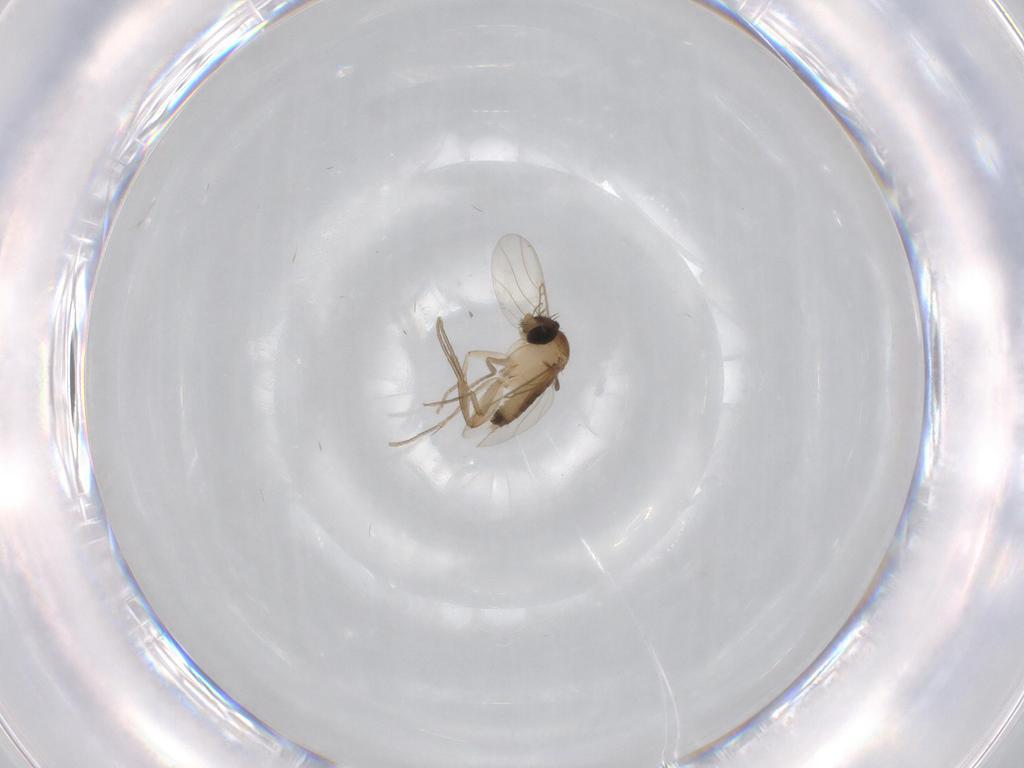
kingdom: Animalia
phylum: Arthropoda
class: Insecta
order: Diptera
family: Phoridae
